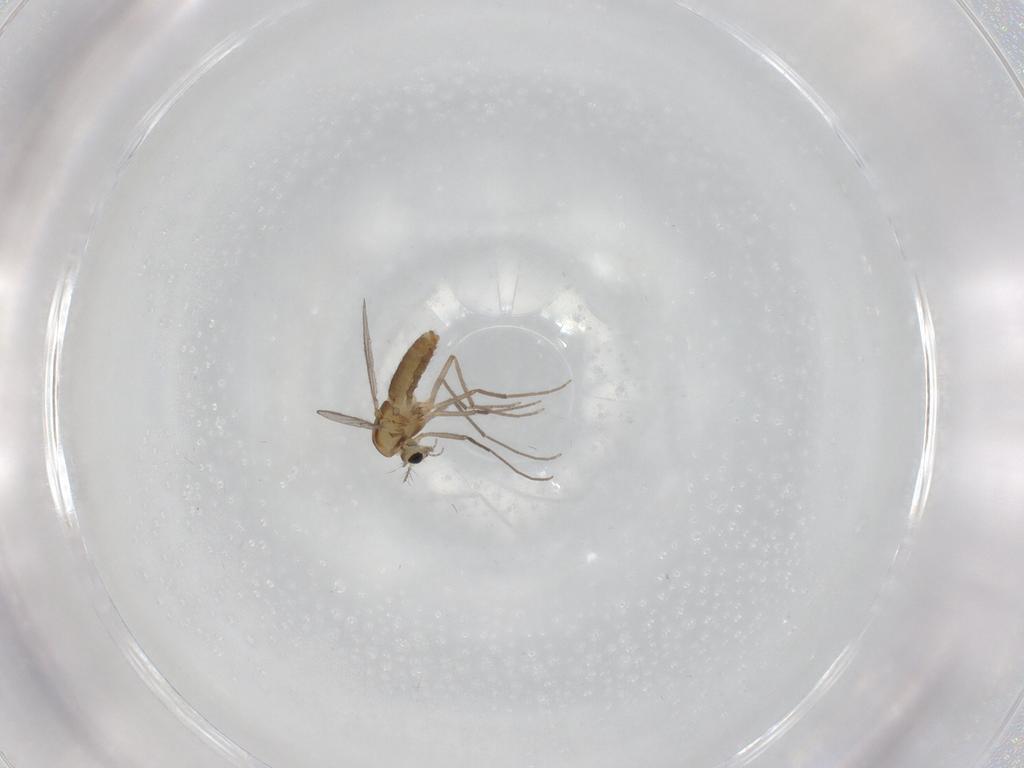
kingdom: Animalia
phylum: Arthropoda
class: Insecta
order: Diptera
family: Chironomidae
